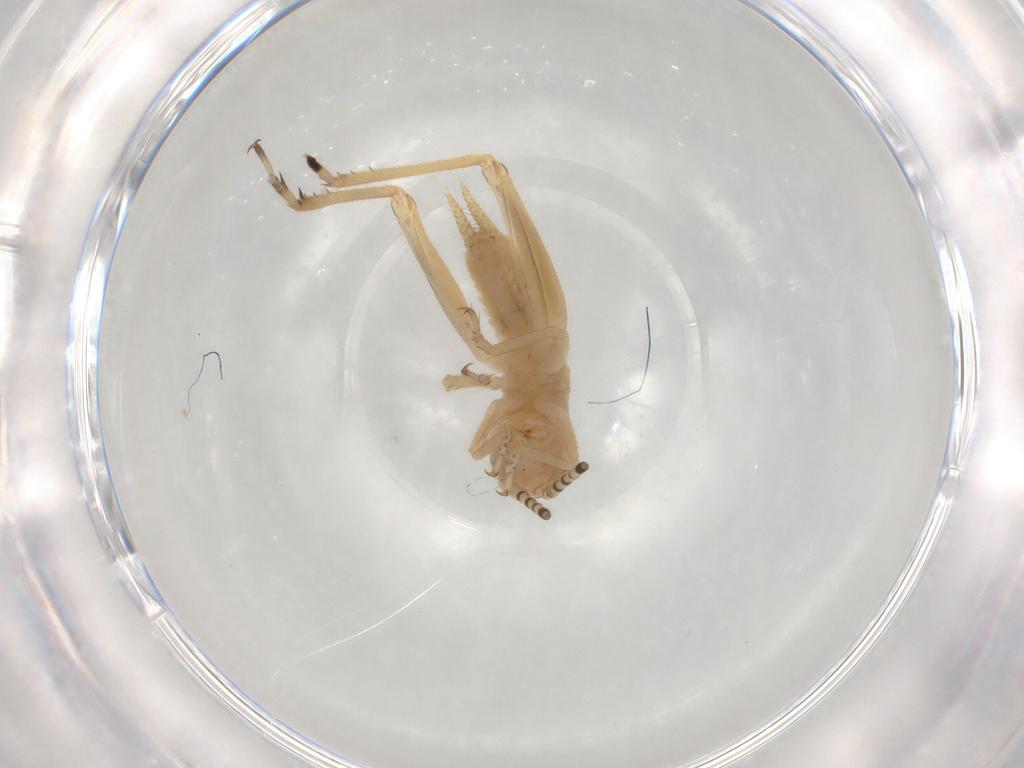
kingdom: Animalia
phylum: Arthropoda
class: Insecta
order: Orthoptera
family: Acrididae
